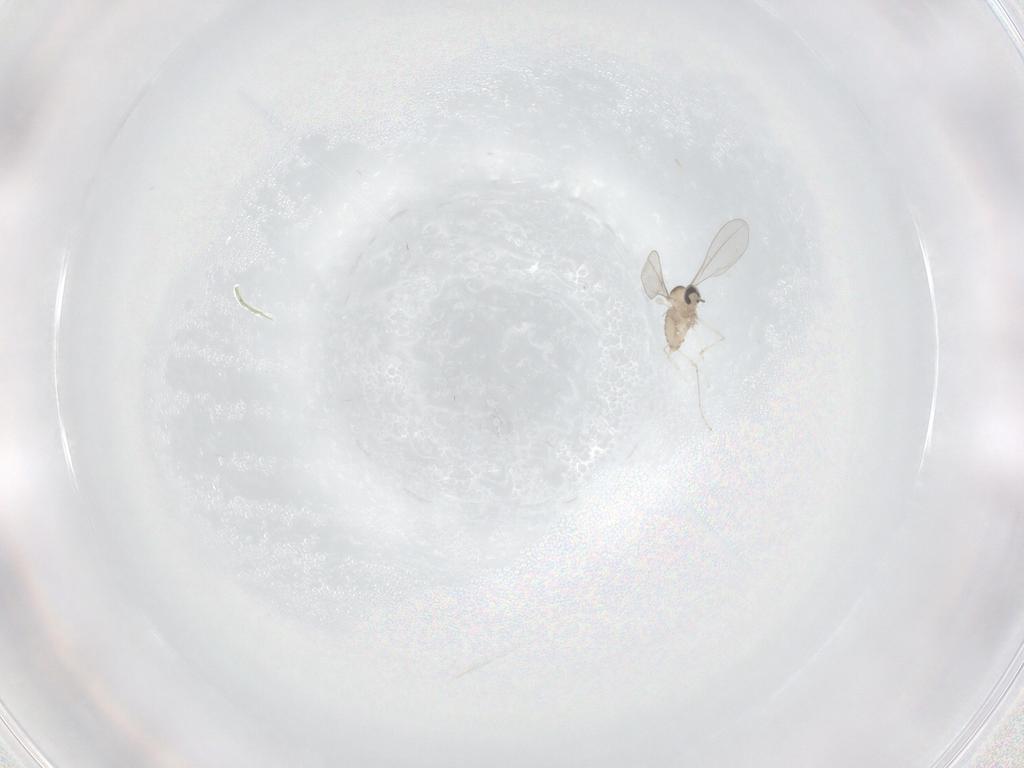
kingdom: Animalia
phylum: Arthropoda
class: Insecta
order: Diptera
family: Cecidomyiidae
